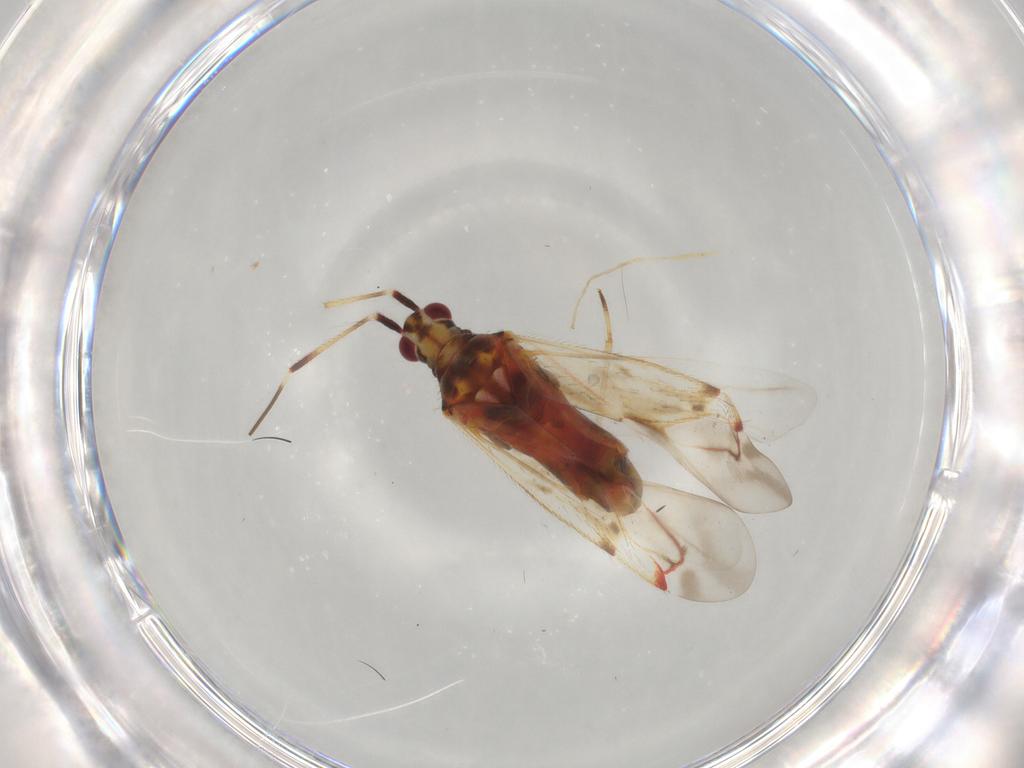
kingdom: Animalia
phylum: Arthropoda
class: Insecta
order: Hemiptera
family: Miridae
